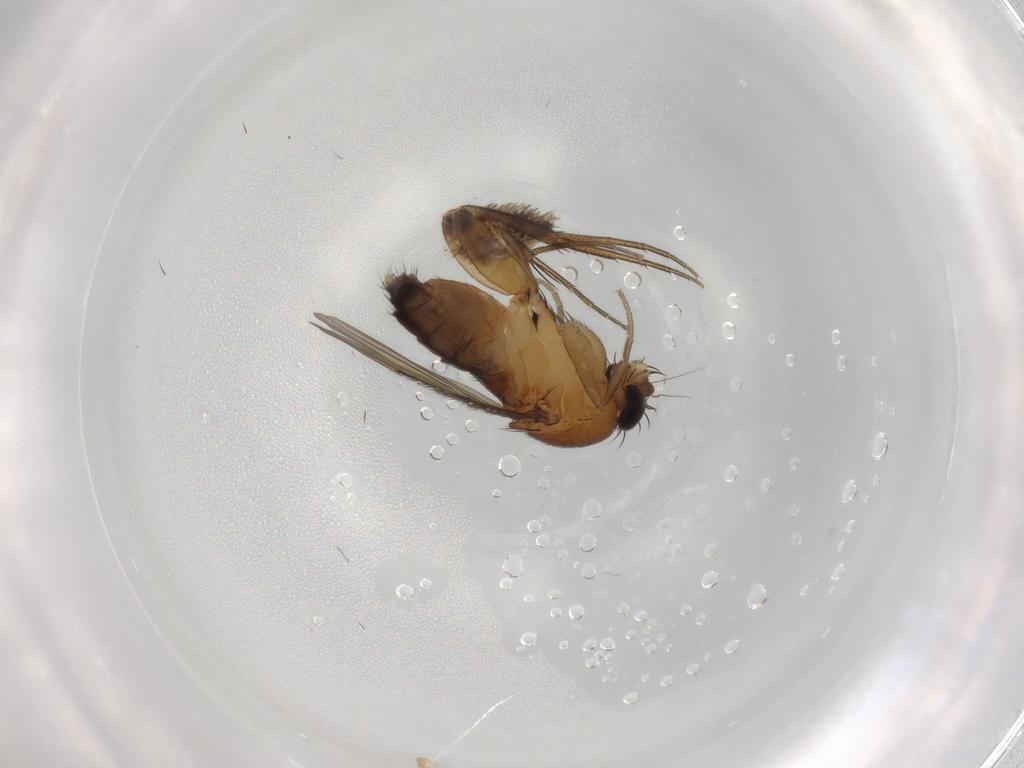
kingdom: Animalia
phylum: Arthropoda
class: Insecta
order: Diptera
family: Phoridae
